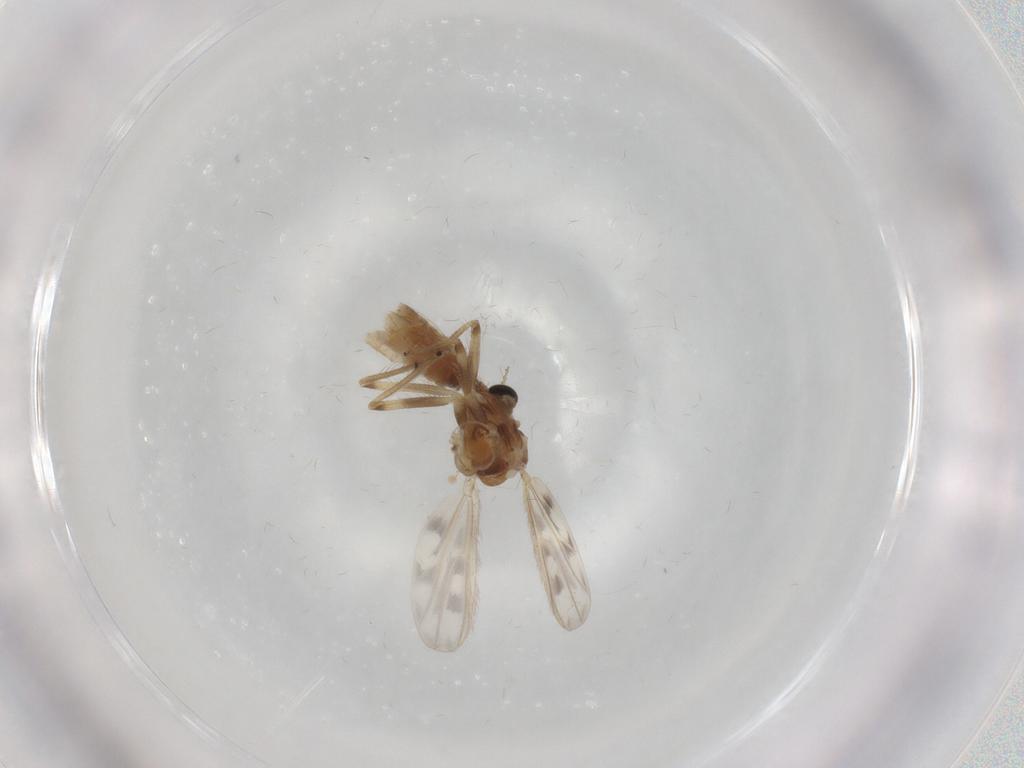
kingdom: Animalia
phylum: Arthropoda
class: Insecta
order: Diptera
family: Chironomidae
